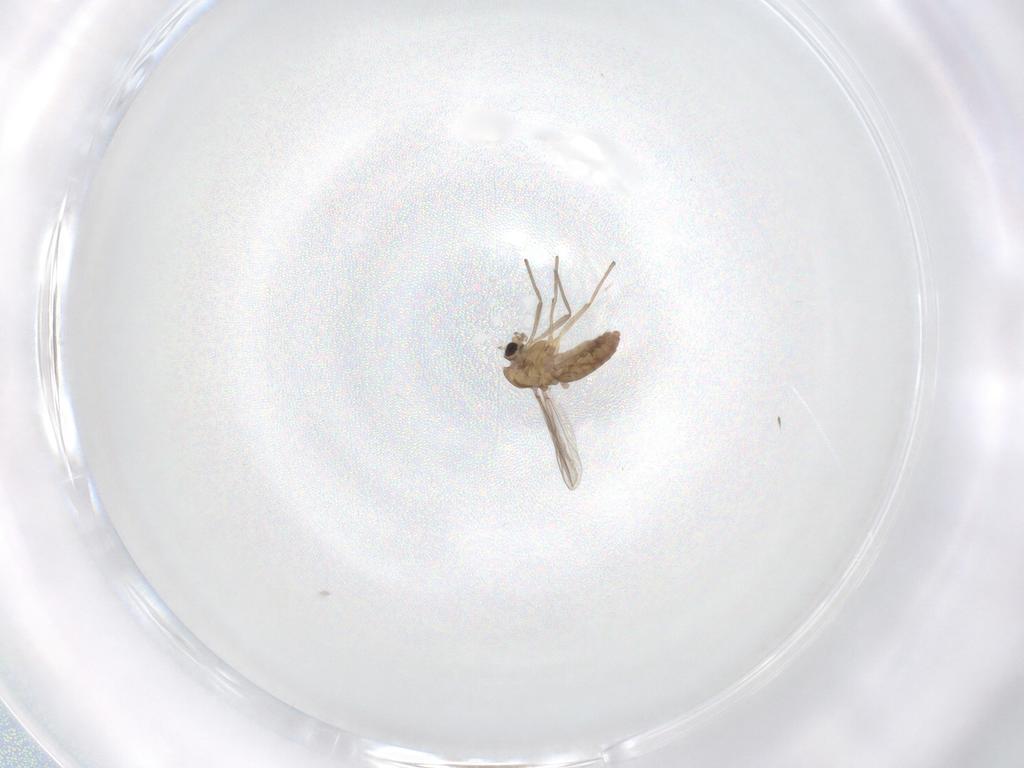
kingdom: Animalia
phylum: Arthropoda
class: Insecta
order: Diptera
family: Chironomidae
